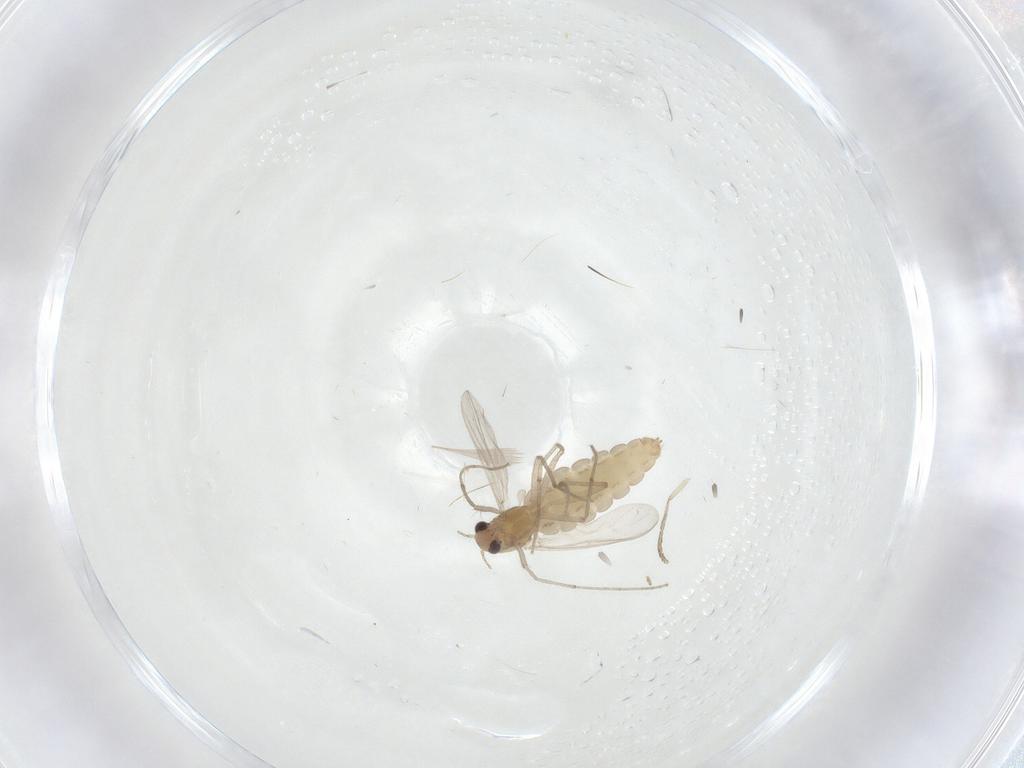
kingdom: Animalia
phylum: Arthropoda
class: Insecta
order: Diptera
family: Chironomidae
